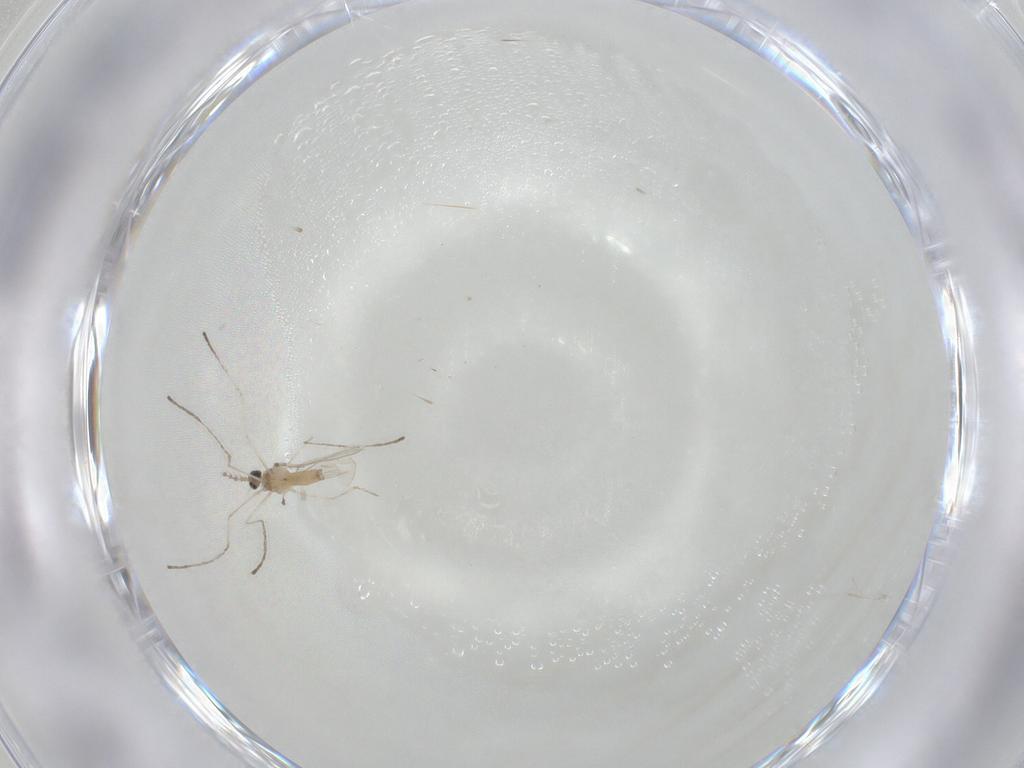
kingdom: Animalia
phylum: Arthropoda
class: Insecta
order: Diptera
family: Cecidomyiidae
